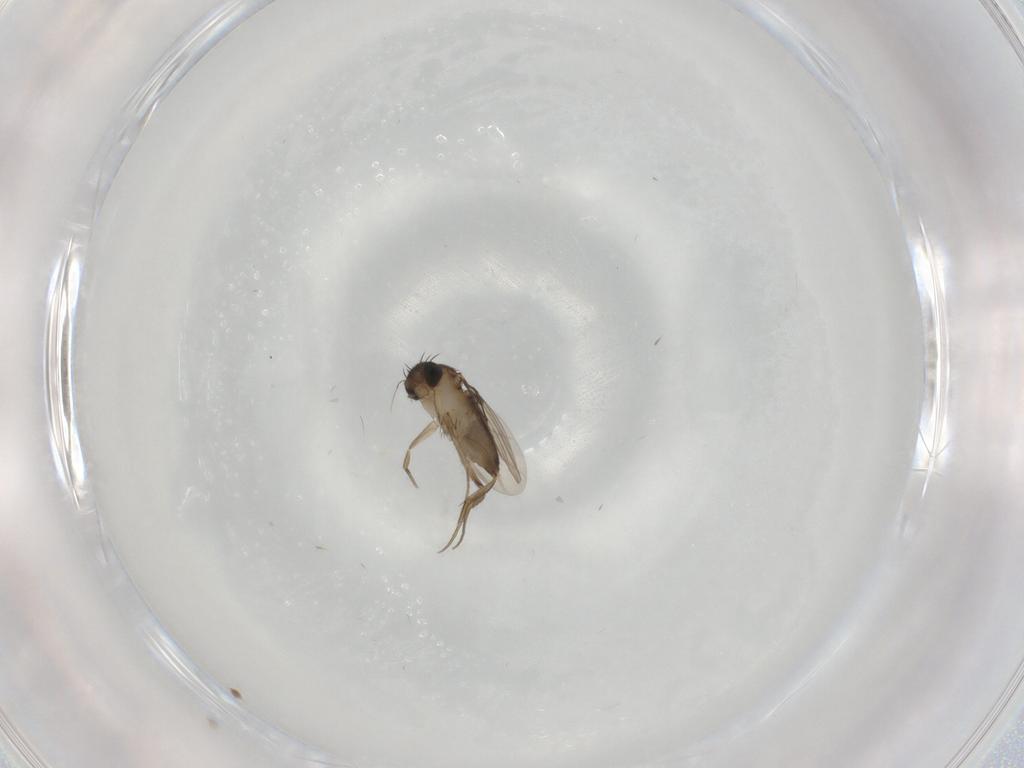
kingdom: Animalia
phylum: Arthropoda
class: Insecta
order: Diptera
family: Phoridae
